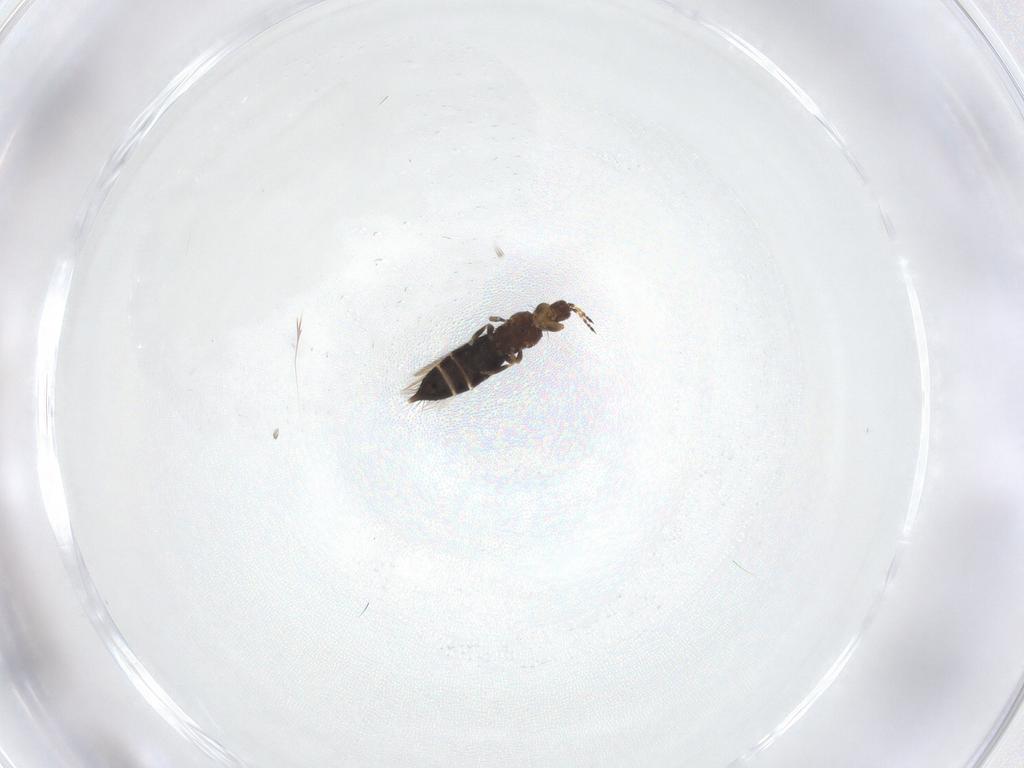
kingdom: Animalia
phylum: Arthropoda
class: Insecta
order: Thysanoptera
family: Thripidae
